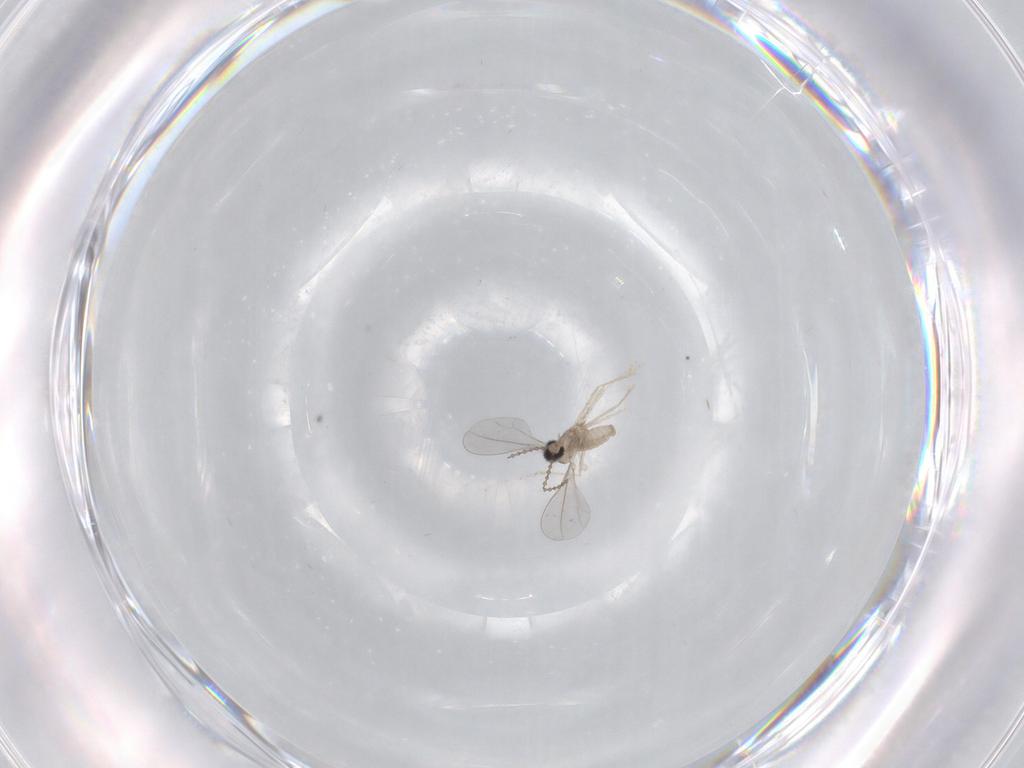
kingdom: Animalia
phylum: Arthropoda
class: Insecta
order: Diptera
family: Cecidomyiidae
